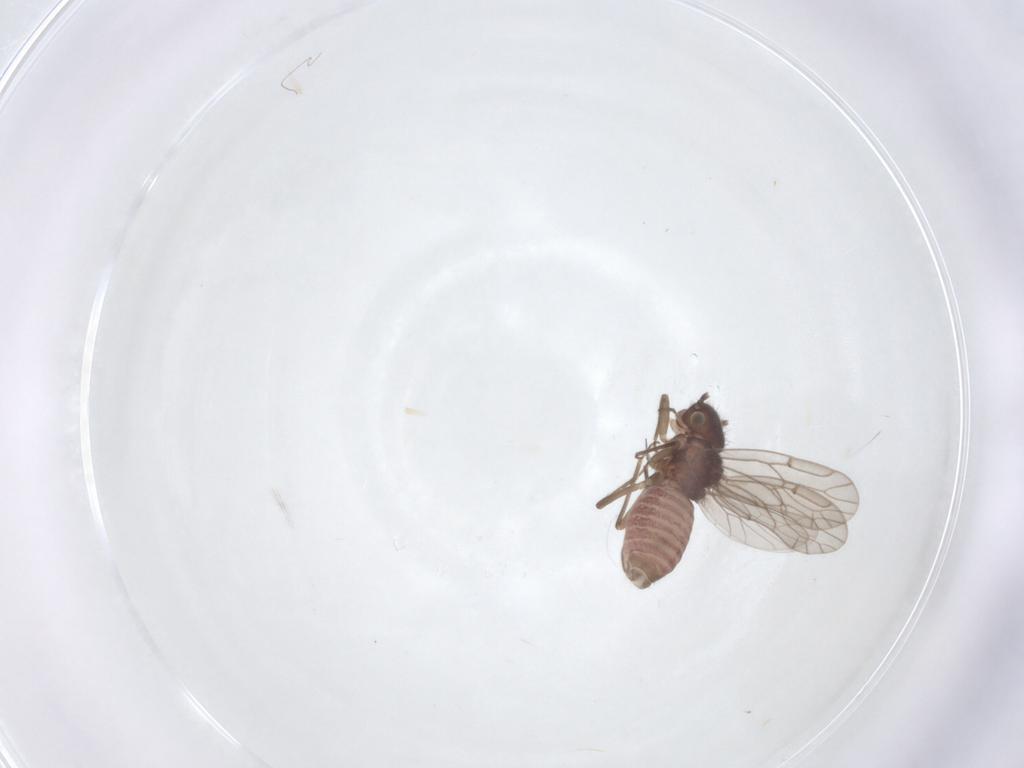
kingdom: Animalia
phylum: Arthropoda
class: Insecta
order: Psocodea
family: Ectopsocidae
